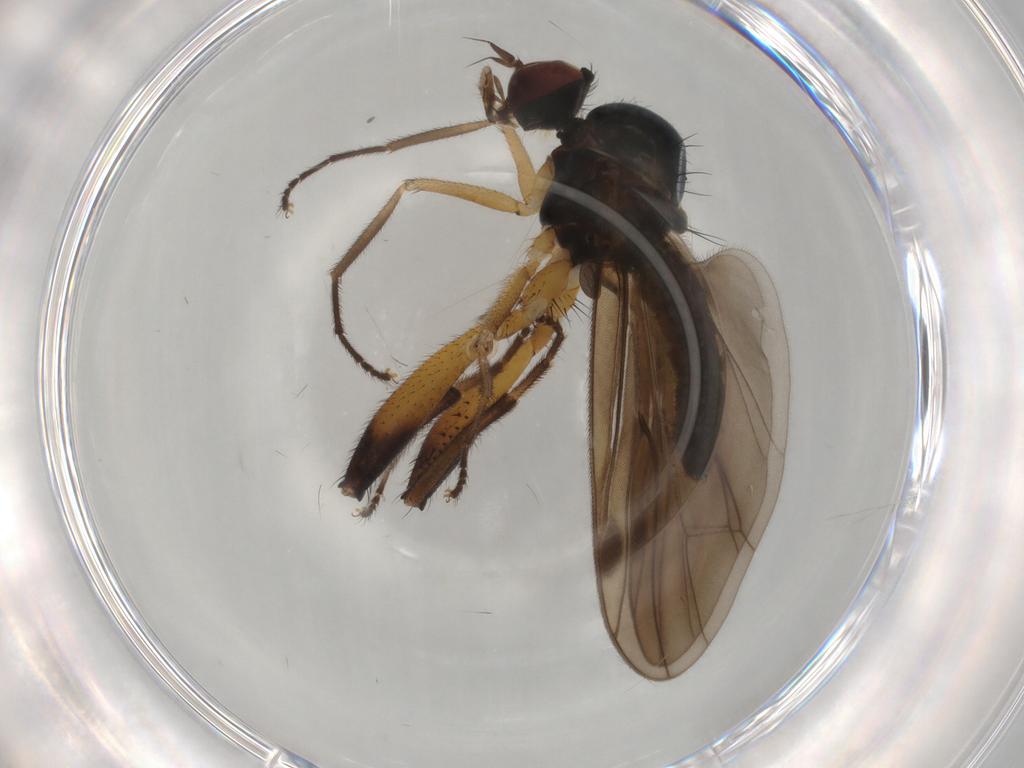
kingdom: Animalia
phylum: Arthropoda
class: Insecta
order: Diptera
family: Hybotidae
